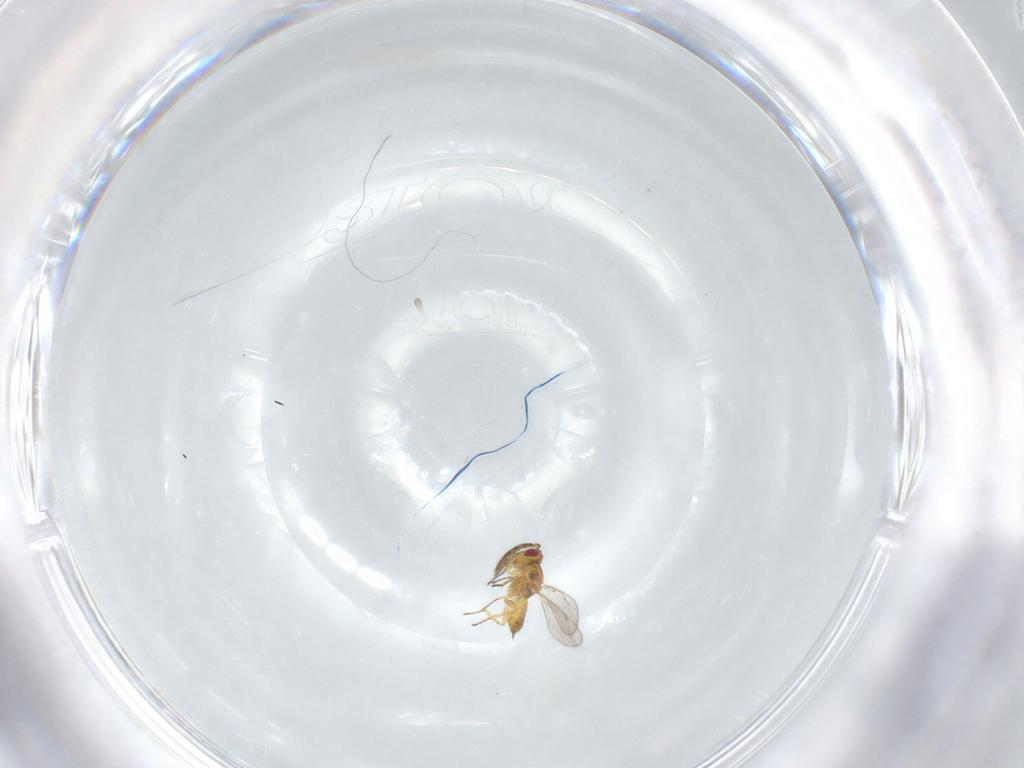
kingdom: Animalia
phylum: Arthropoda
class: Insecta
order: Hymenoptera
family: Eulophidae
